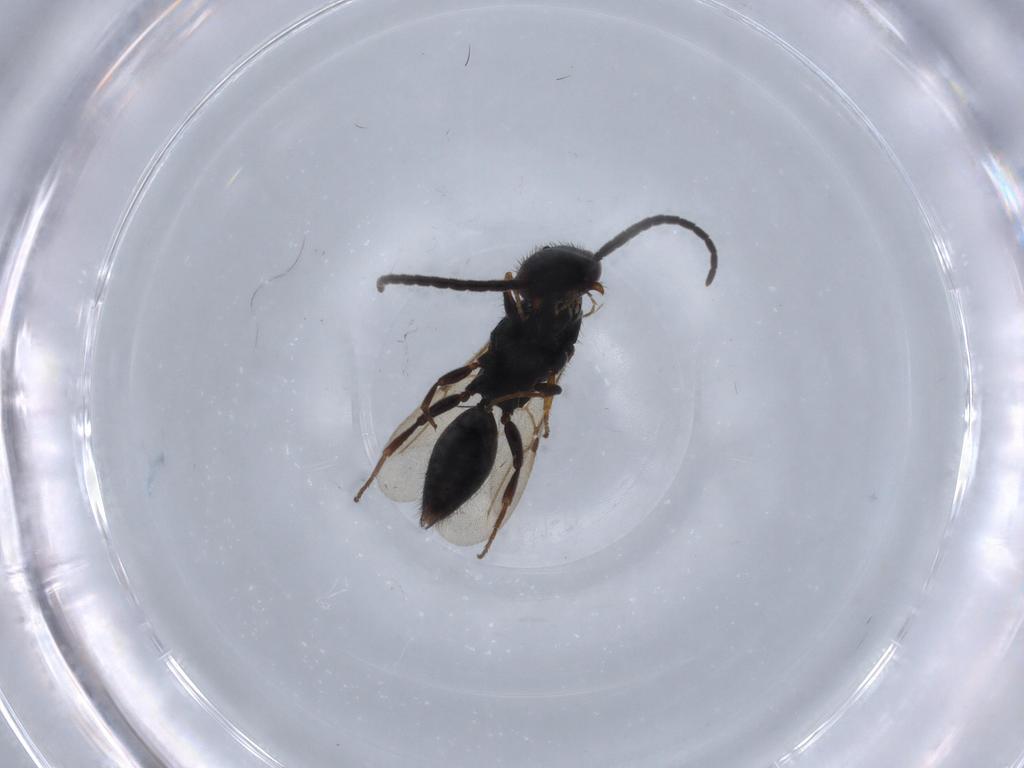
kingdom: Animalia
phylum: Arthropoda
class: Insecta
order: Hymenoptera
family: Bethylidae
